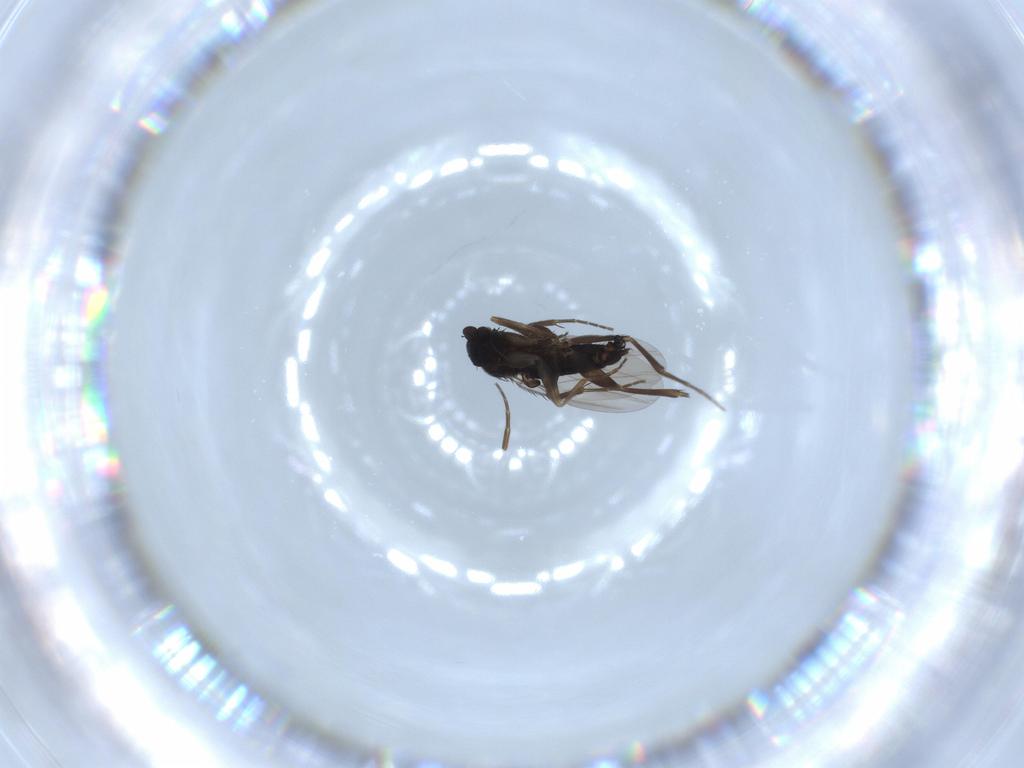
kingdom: Animalia
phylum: Arthropoda
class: Insecta
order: Diptera
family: Phoridae
